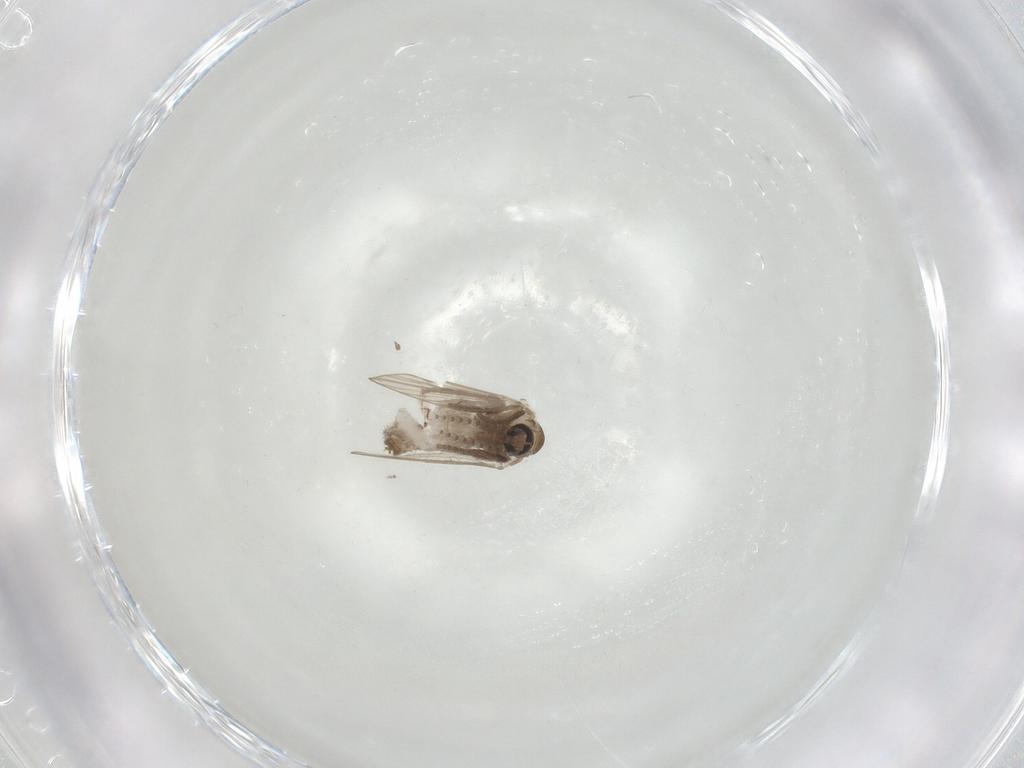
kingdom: Animalia
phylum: Arthropoda
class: Insecta
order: Diptera
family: Psychodidae
